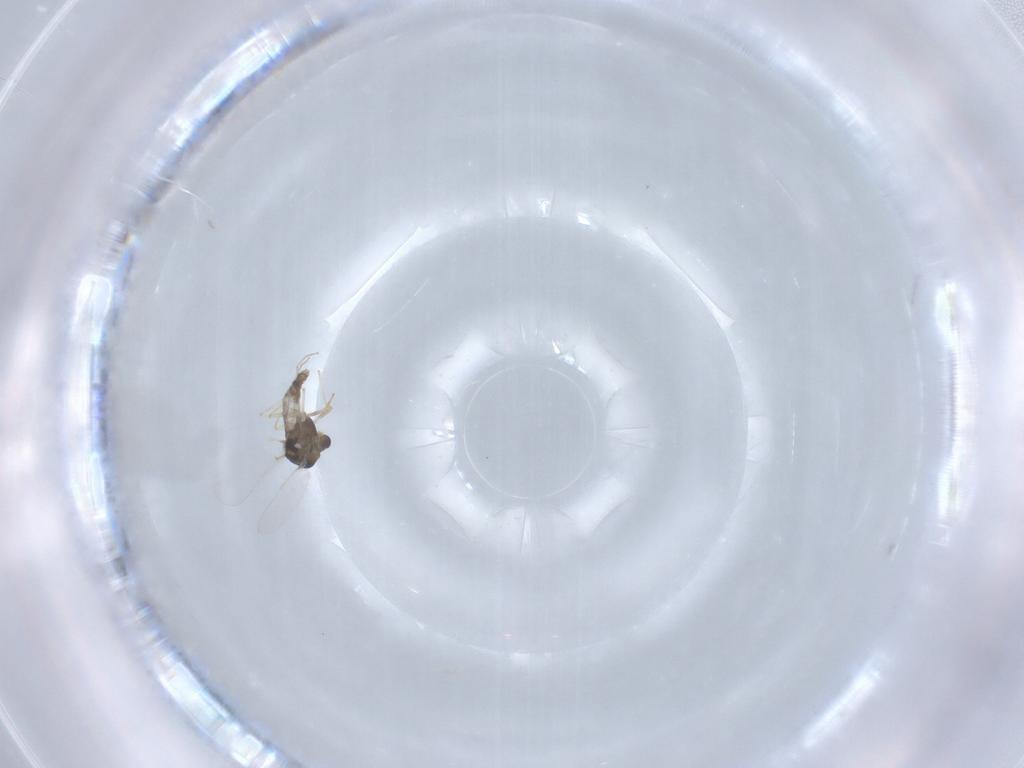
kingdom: Animalia
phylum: Arthropoda
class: Insecta
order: Diptera
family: Chironomidae
